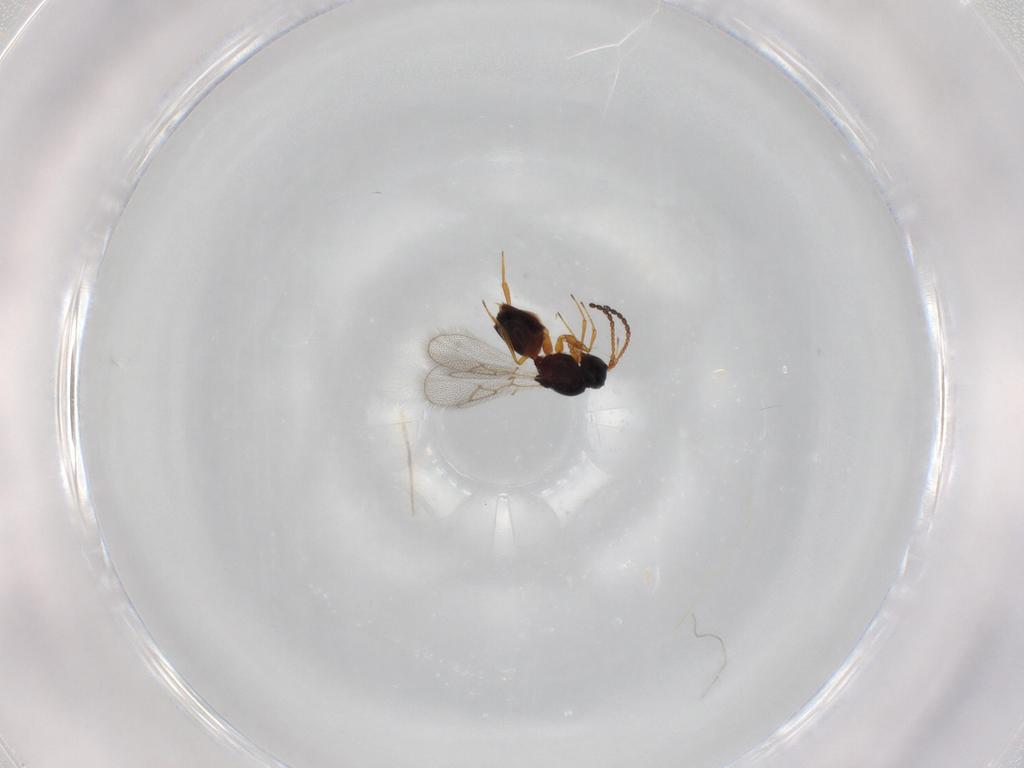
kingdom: Animalia
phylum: Arthropoda
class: Insecta
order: Hymenoptera
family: Figitidae
